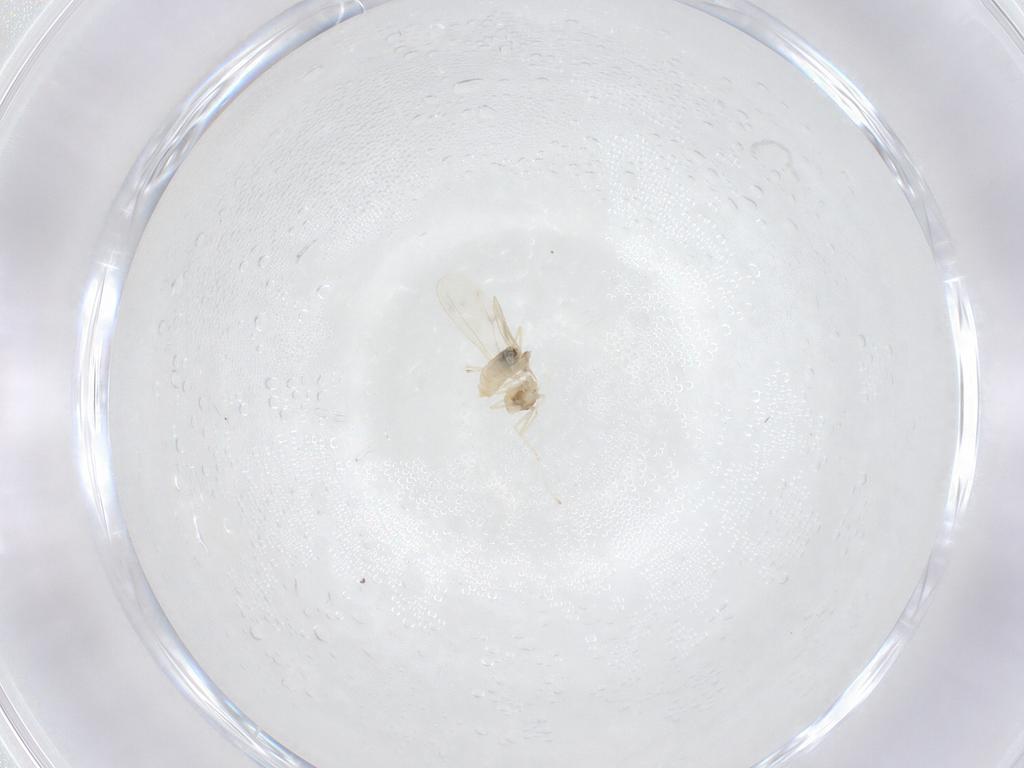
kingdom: Animalia
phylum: Arthropoda
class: Insecta
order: Diptera
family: Cecidomyiidae
